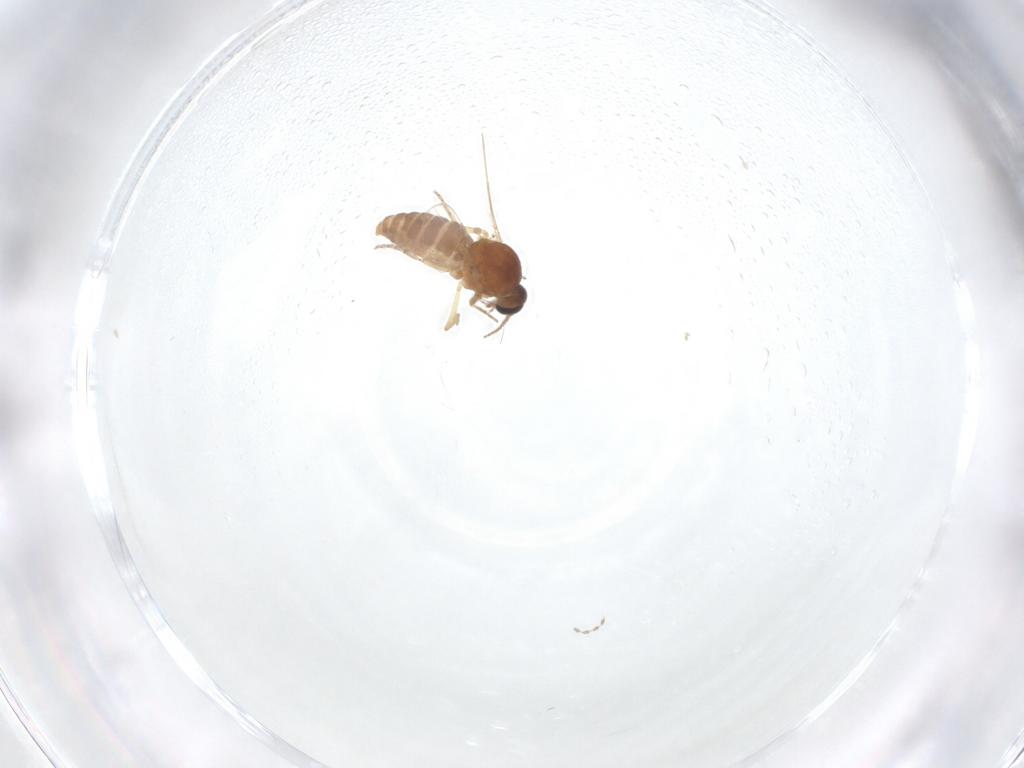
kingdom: Animalia
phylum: Arthropoda
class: Insecta
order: Diptera
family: Ceratopogonidae
